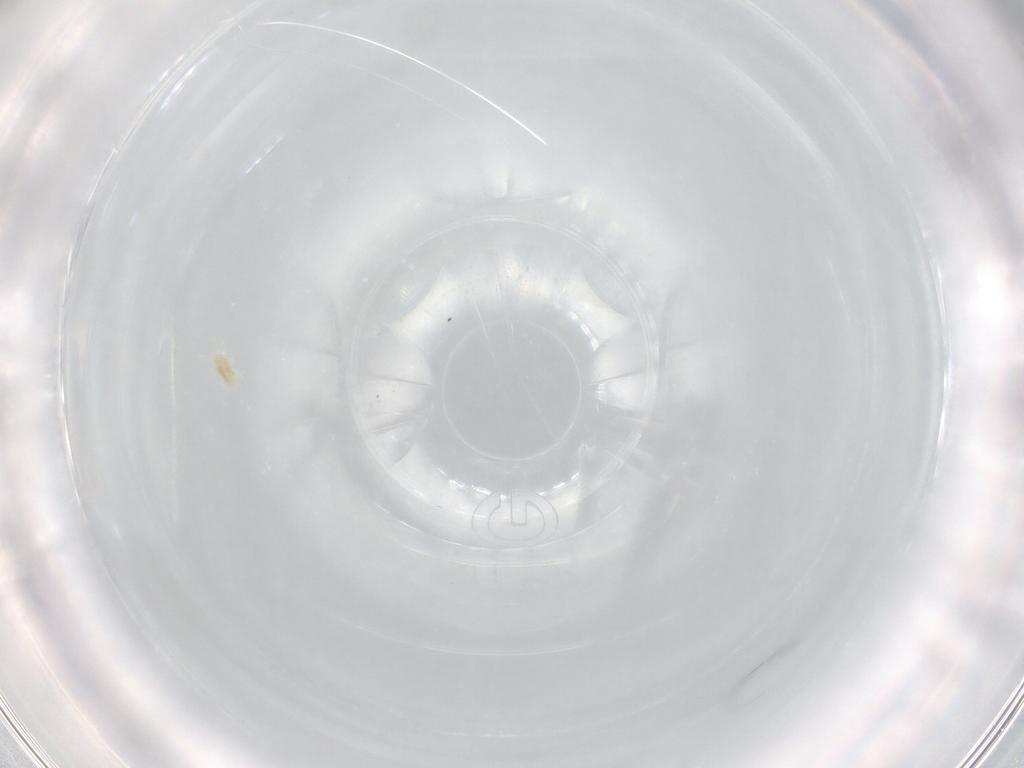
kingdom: Animalia
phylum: Arthropoda
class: Arachnida
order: Trombidiformes
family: Eupodidae
